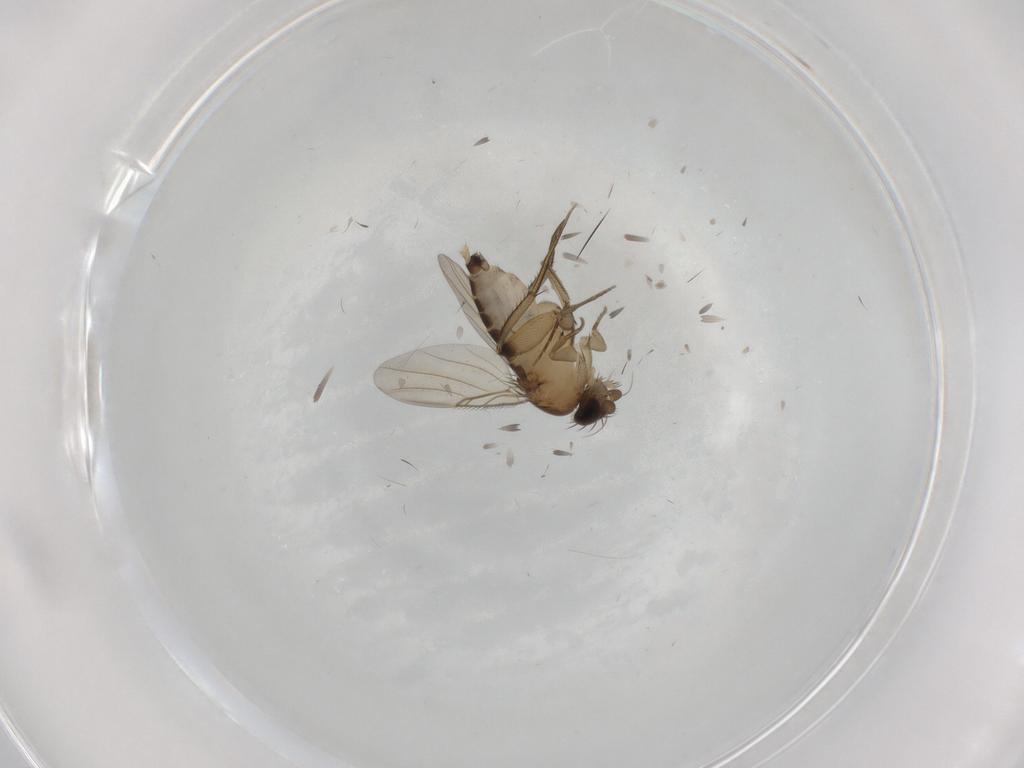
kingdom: Animalia
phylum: Arthropoda
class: Insecta
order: Diptera
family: Phoridae
